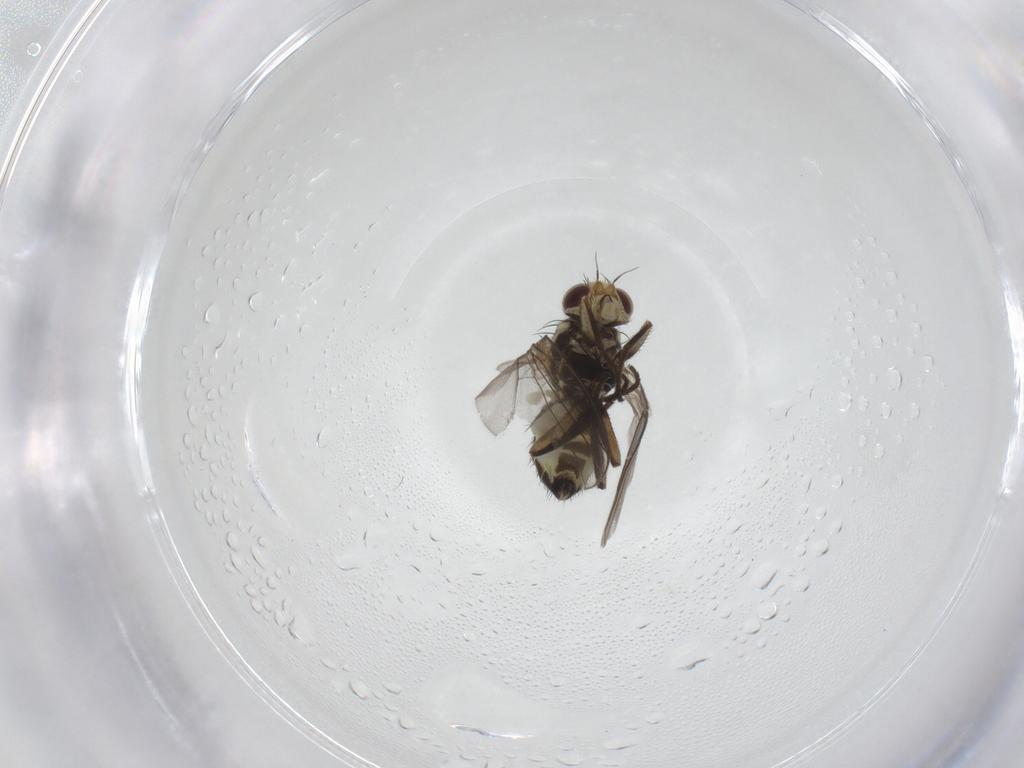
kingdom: Animalia
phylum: Arthropoda
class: Insecta
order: Diptera
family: Agromyzidae
